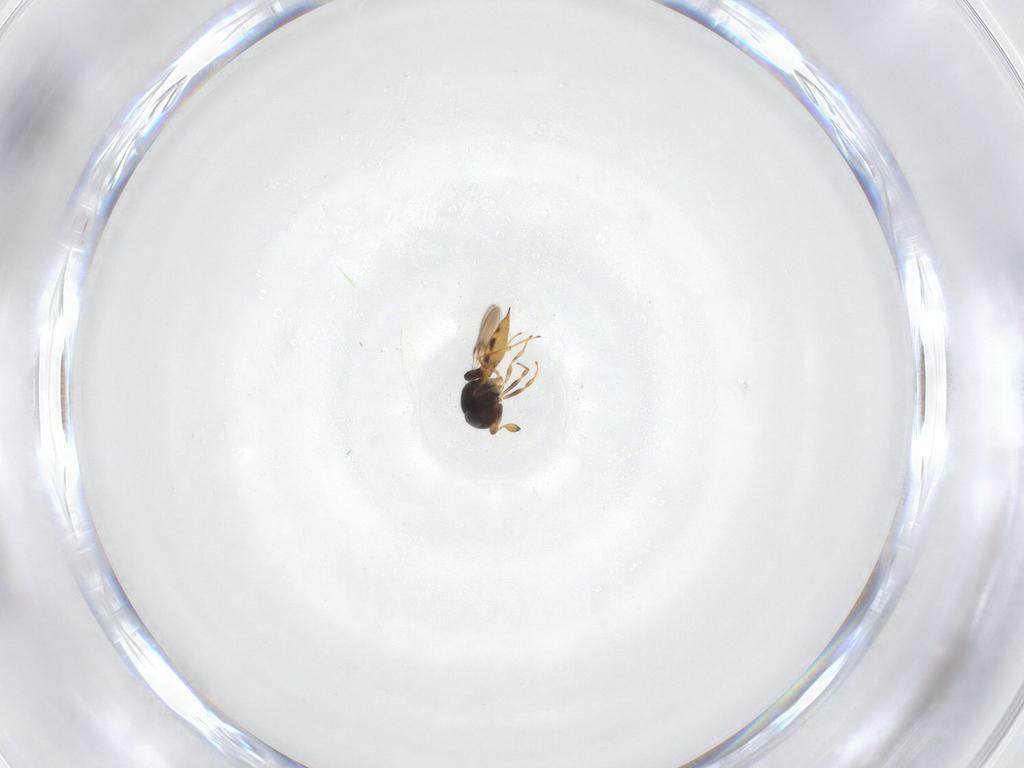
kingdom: Animalia
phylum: Arthropoda
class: Insecta
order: Hymenoptera
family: Scelionidae
